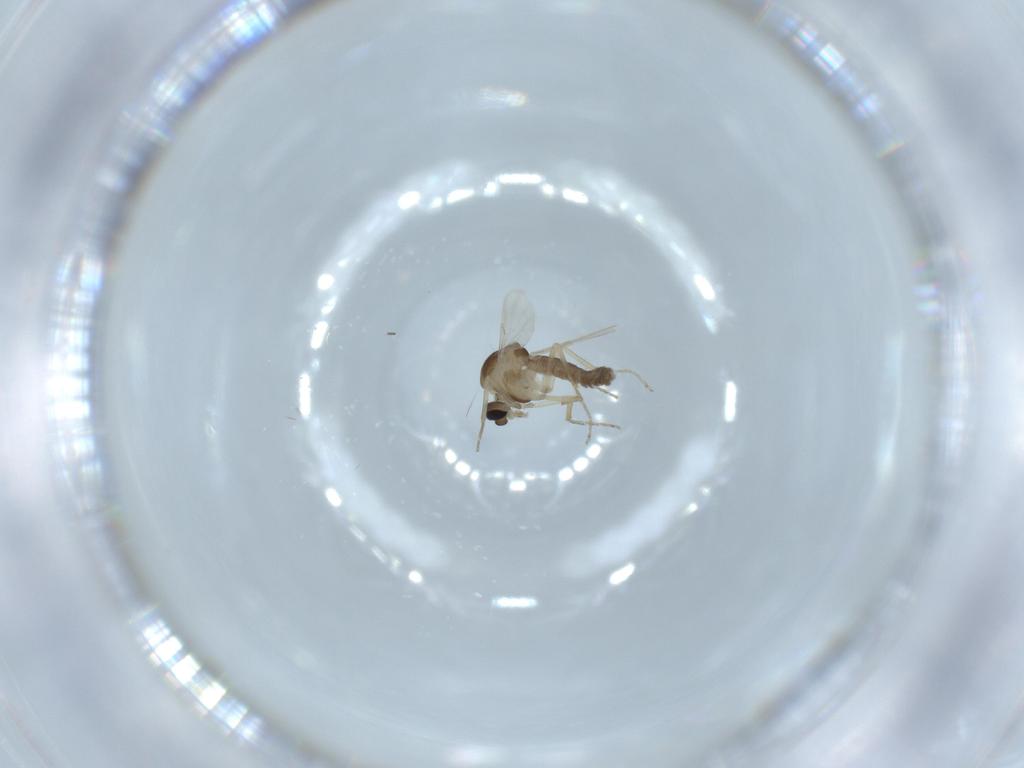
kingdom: Animalia
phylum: Arthropoda
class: Insecta
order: Diptera
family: Ceratopogonidae
